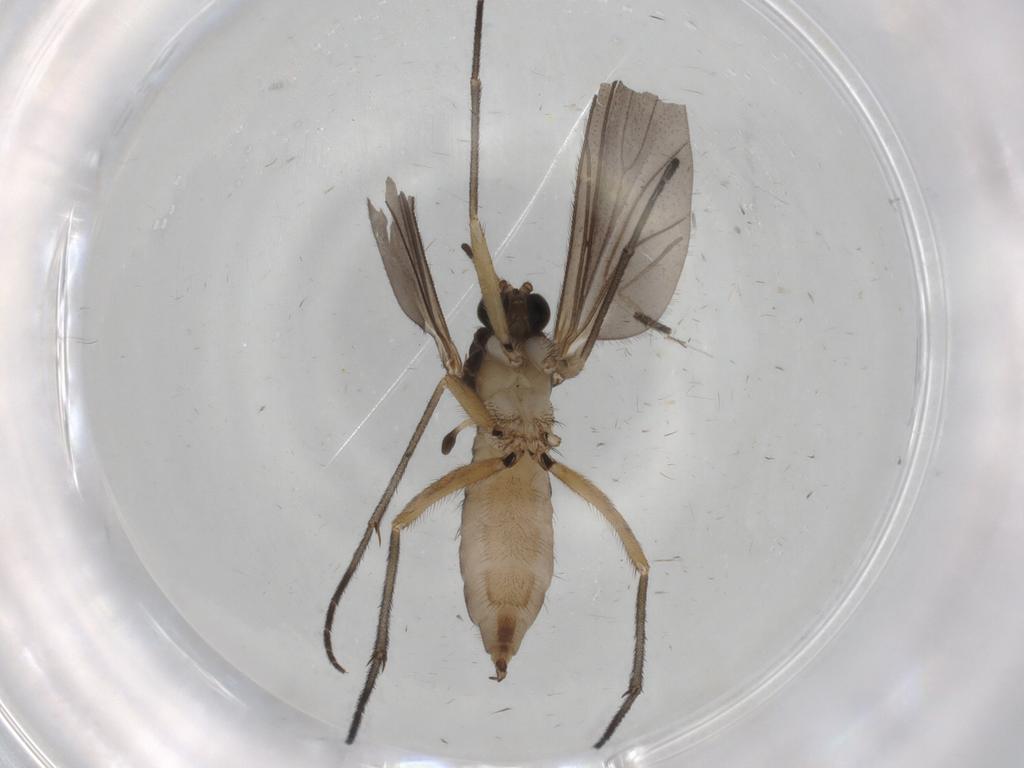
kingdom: Animalia
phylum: Arthropoda
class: Insecta
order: Diptera
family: Sciaridae
